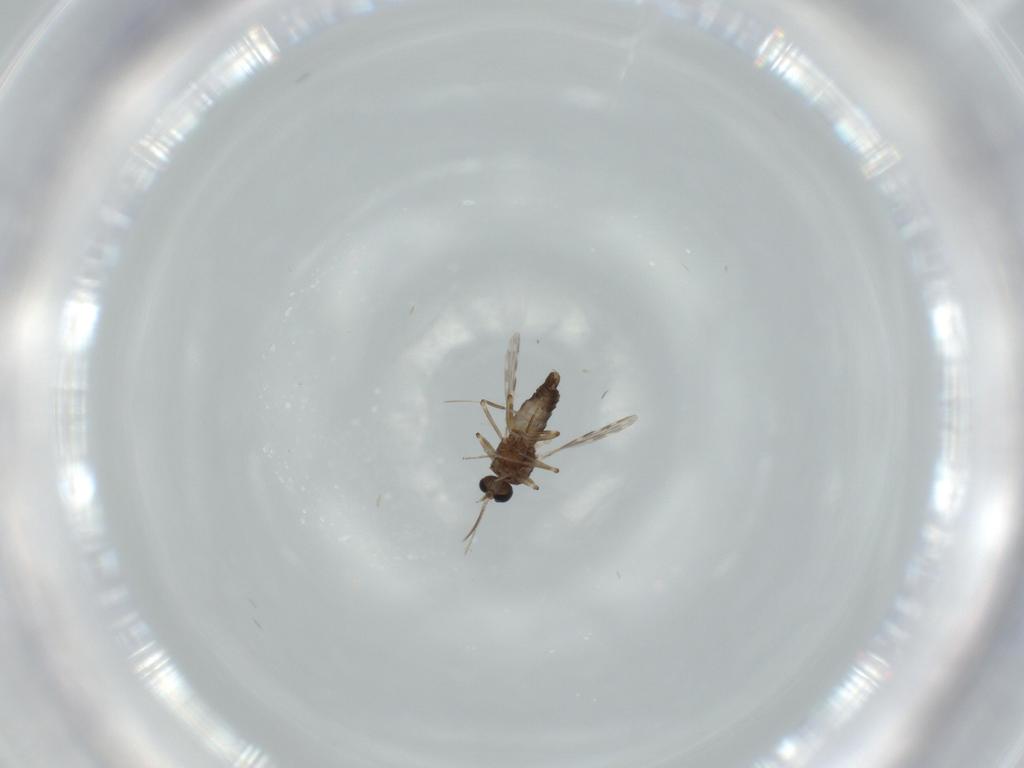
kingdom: Animalia
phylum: Arthropoda
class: Insecta
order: Diptera
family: Ceratopogonidae
